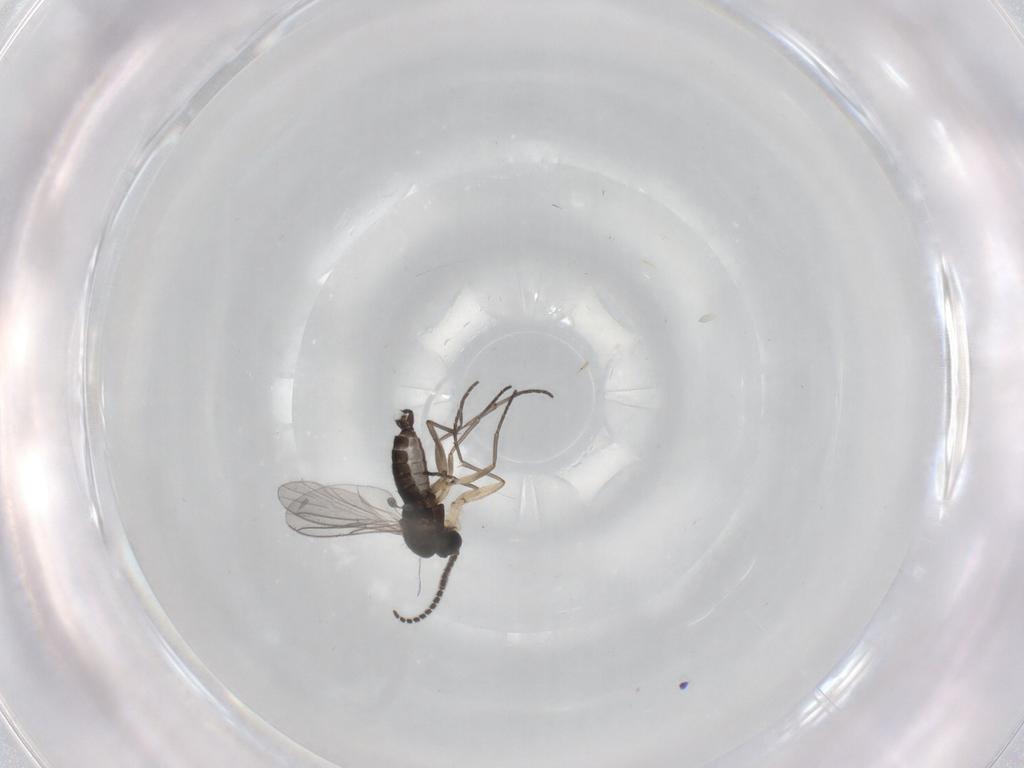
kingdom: Animalia
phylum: Arthropoda
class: Insecta
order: Diptera
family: Sciaridae
